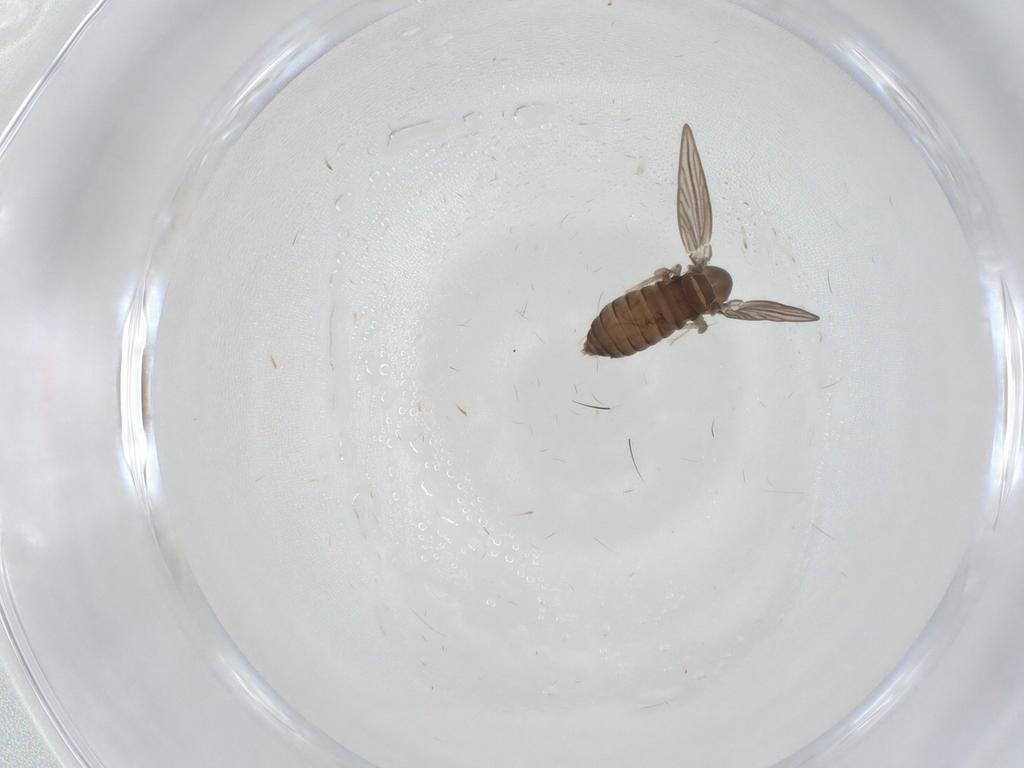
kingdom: Animalia
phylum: Arthropoda
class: Insecta
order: Diptera
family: Psychodidae
